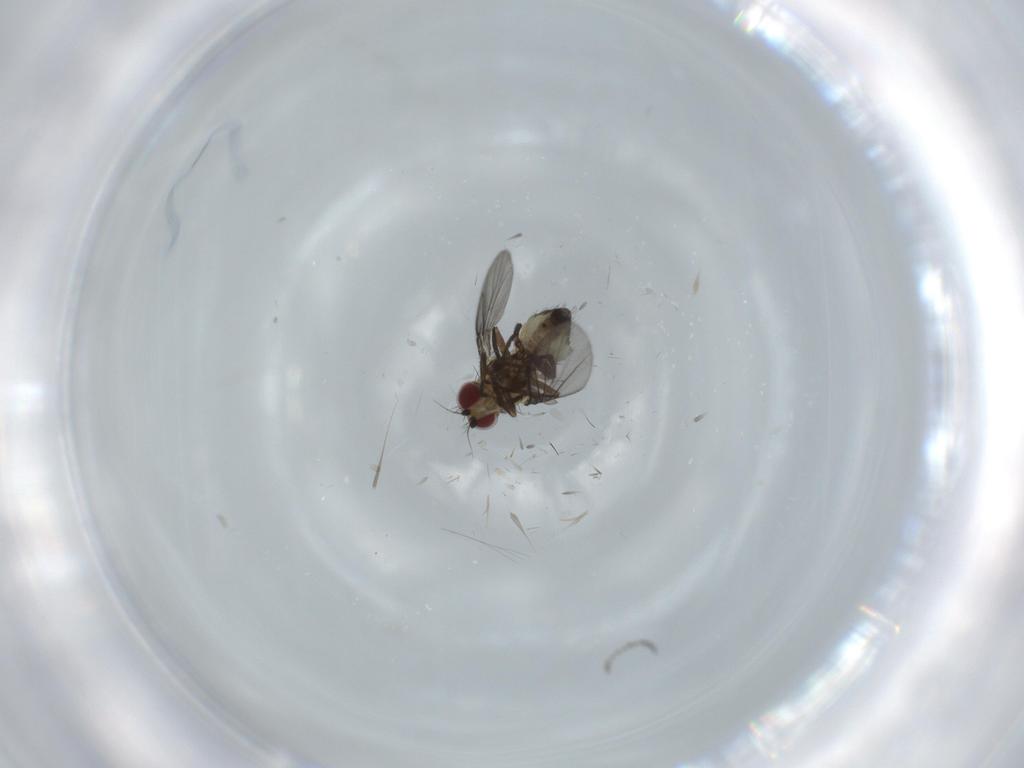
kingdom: Animalia
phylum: Arthropoda
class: Insecta
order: Diptera
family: Agromyzidae
